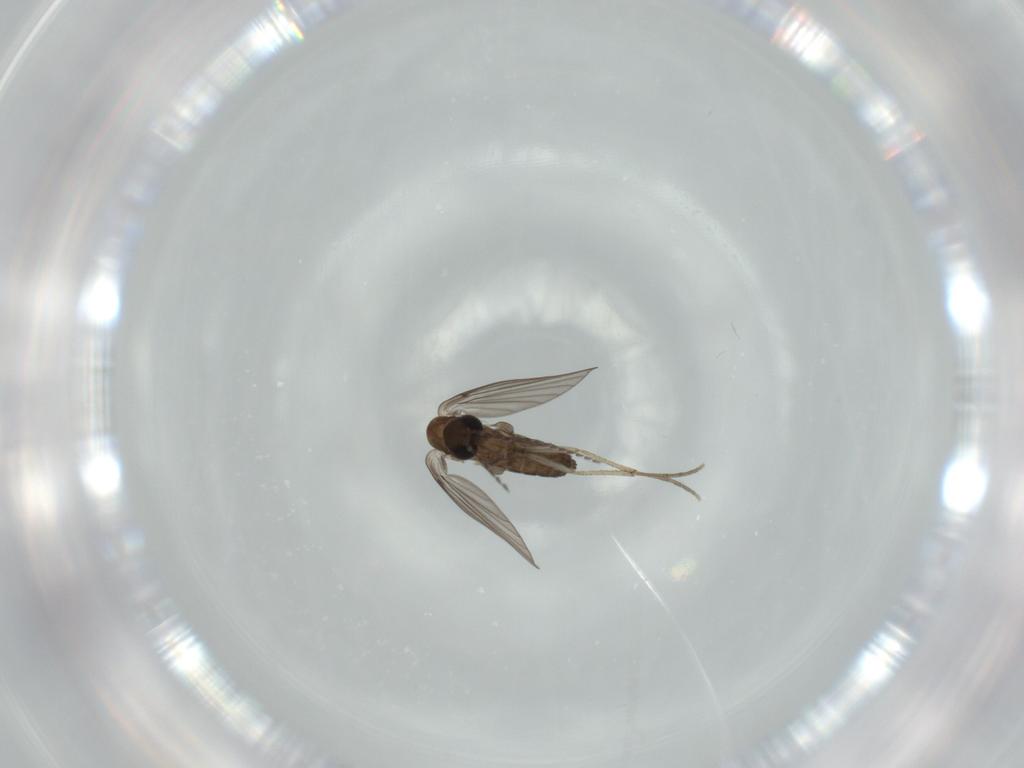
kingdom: Animalia
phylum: Arthropoda
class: Insecta
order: Diptera
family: Psychodidae
